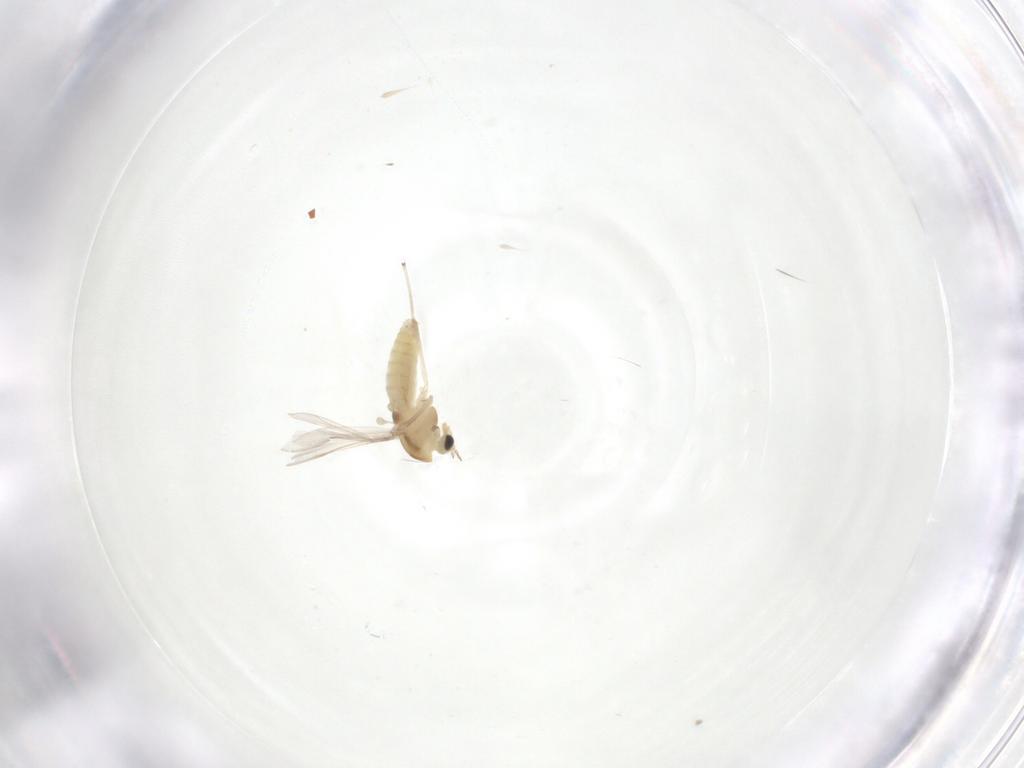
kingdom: Animalia
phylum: Arthropoda
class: Insecta
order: Diptera
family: Chironomidae
